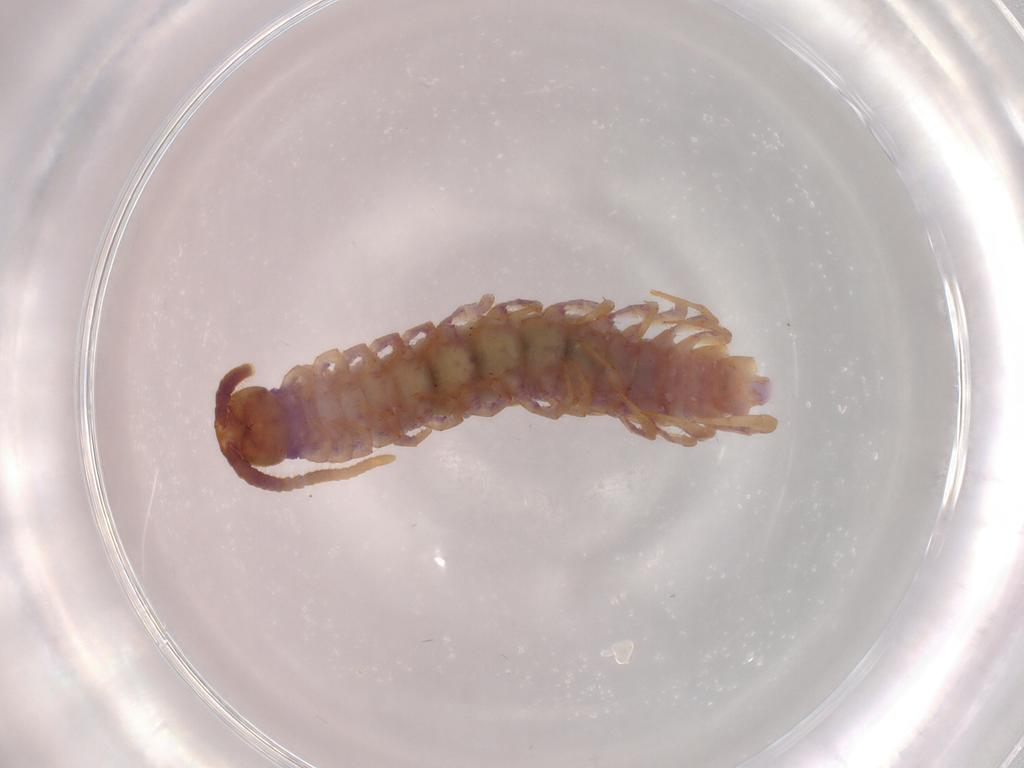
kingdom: Animalia
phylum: Arthropoda
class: Chilopoda
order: Lithobiomorpha
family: Lithobiidae
